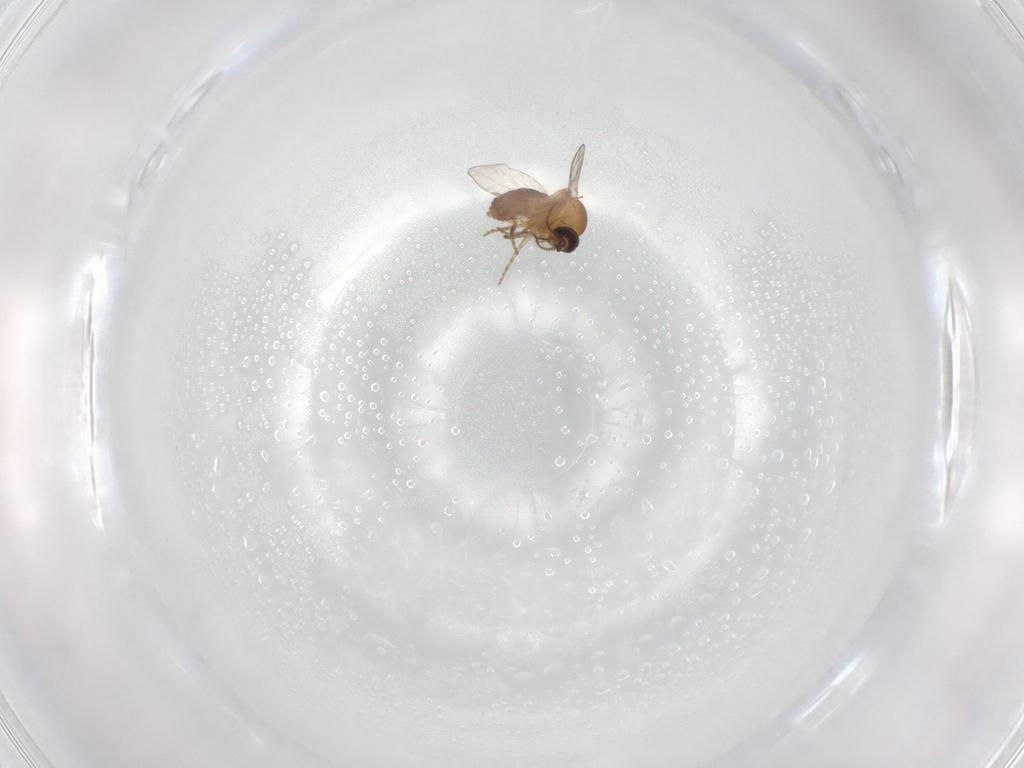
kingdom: Animalia
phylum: Arthropoda
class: Insecta
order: Diptera
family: Ceratopogonidae
